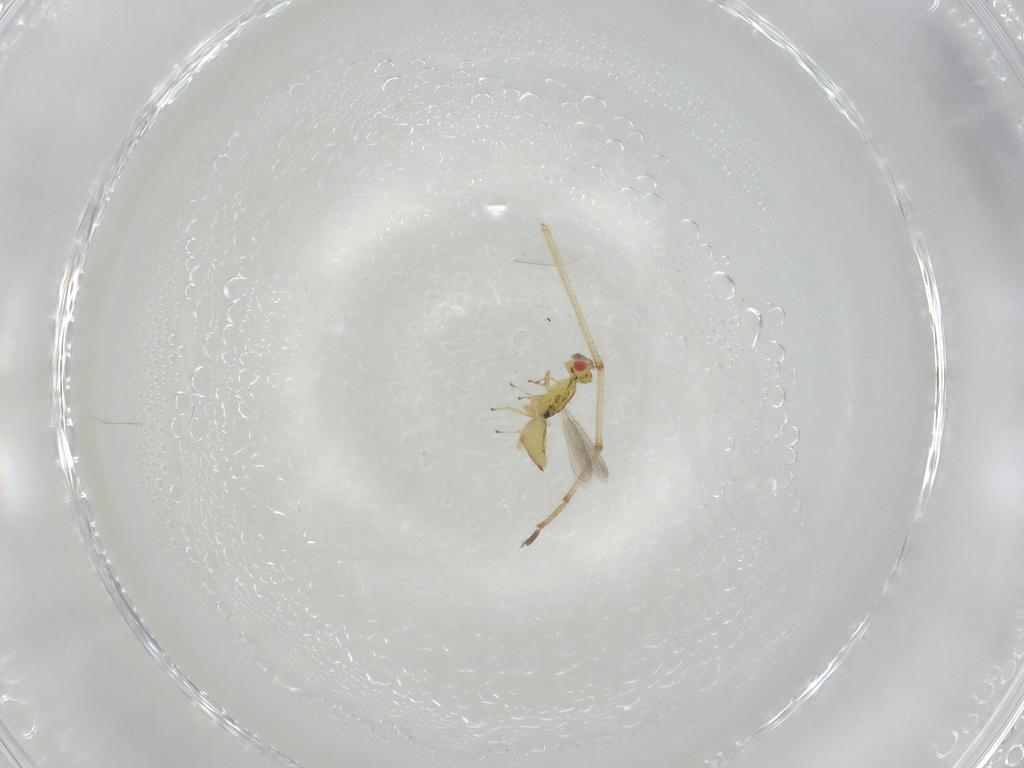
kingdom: Animalia
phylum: Arthropoda
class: Insecta
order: Hymenoptera
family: Eulophidae
